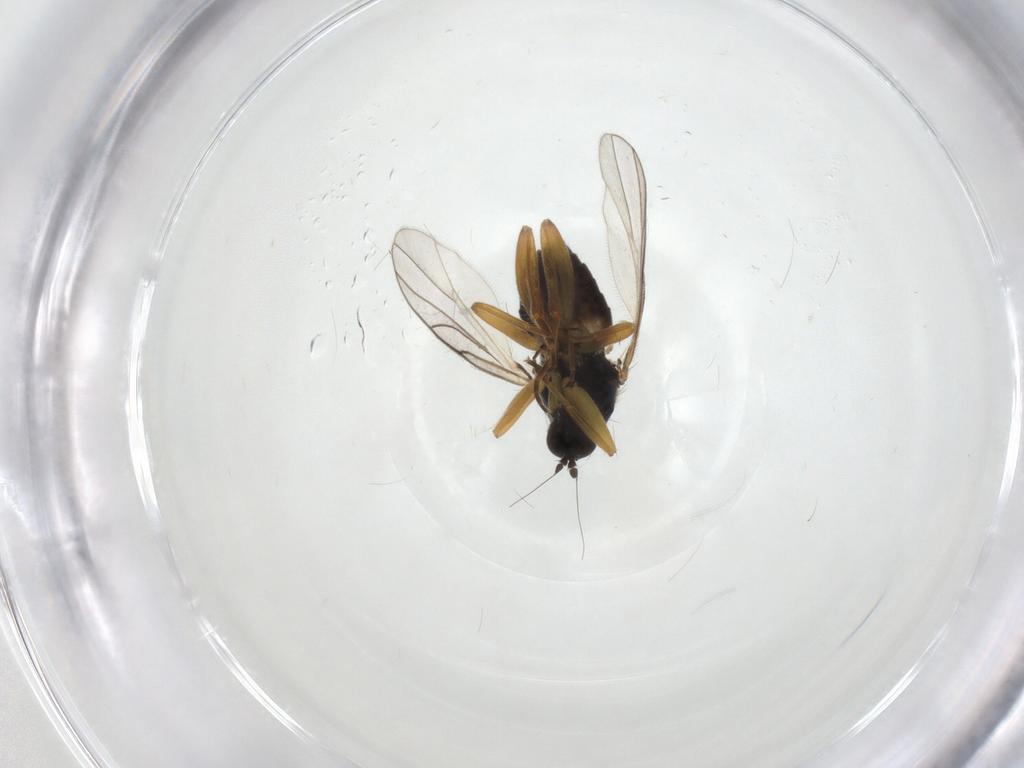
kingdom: Animalia
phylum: Arthropoda
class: Insecta
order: Diptera
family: Hybotidae
